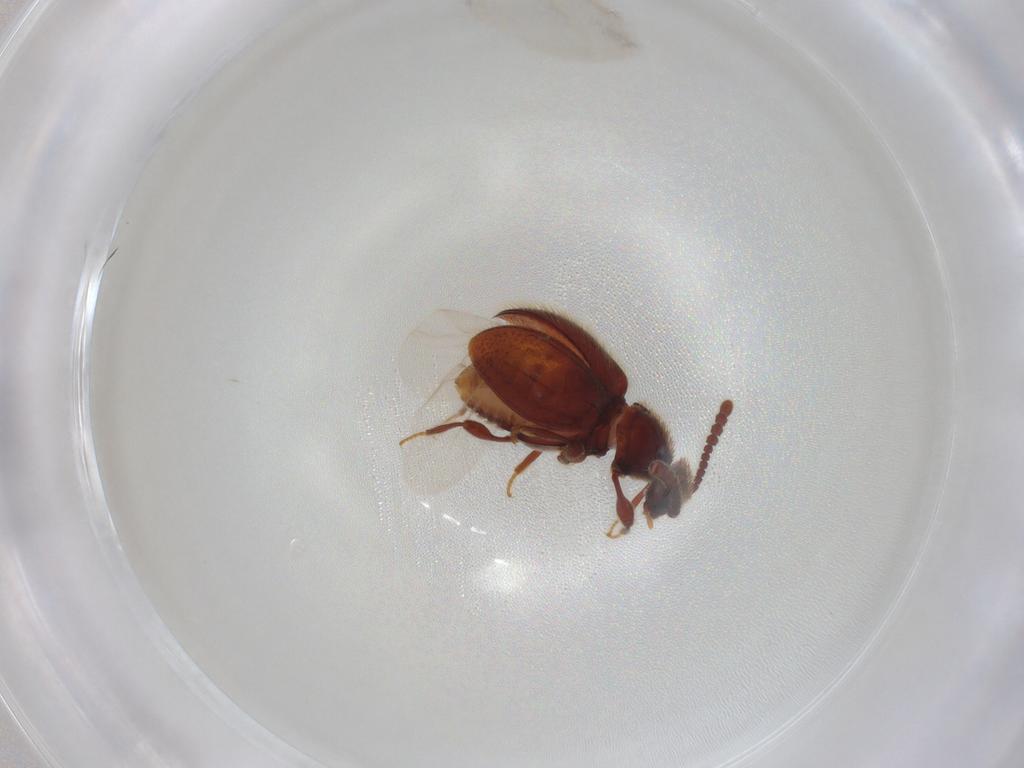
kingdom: Animalia
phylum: Arthropoda
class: Insecta
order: Coleoptera
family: Staphylinidae
